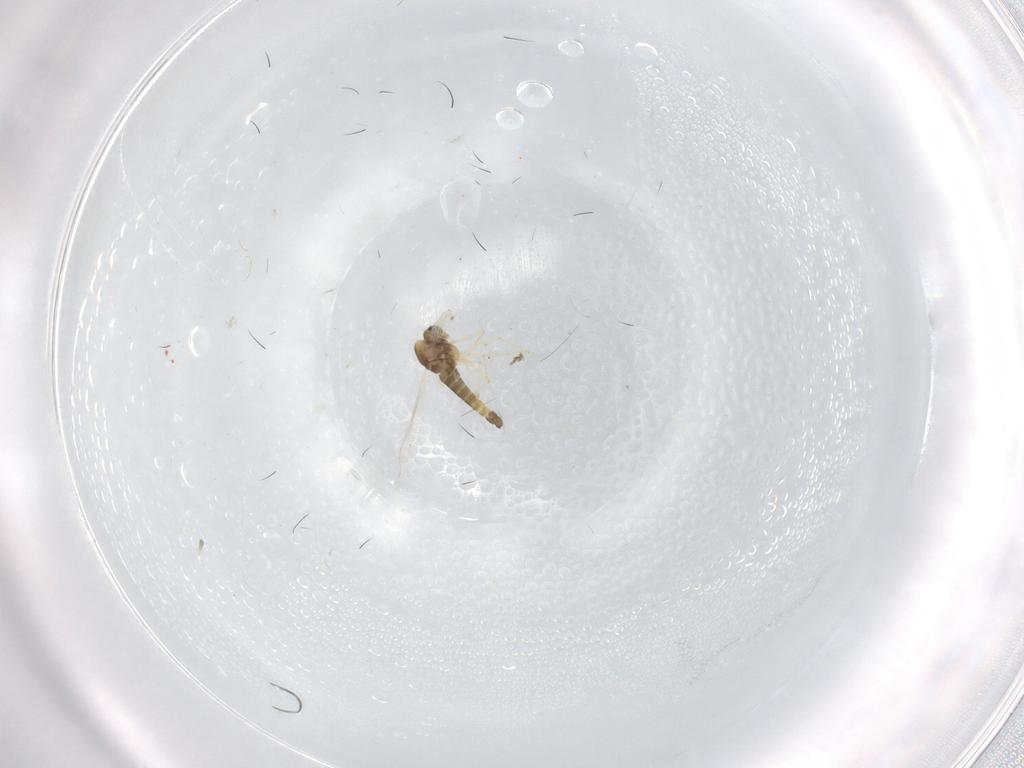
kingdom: Animalia
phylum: Arthropoda
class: Insecta
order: Diptera
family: Chironomidae
